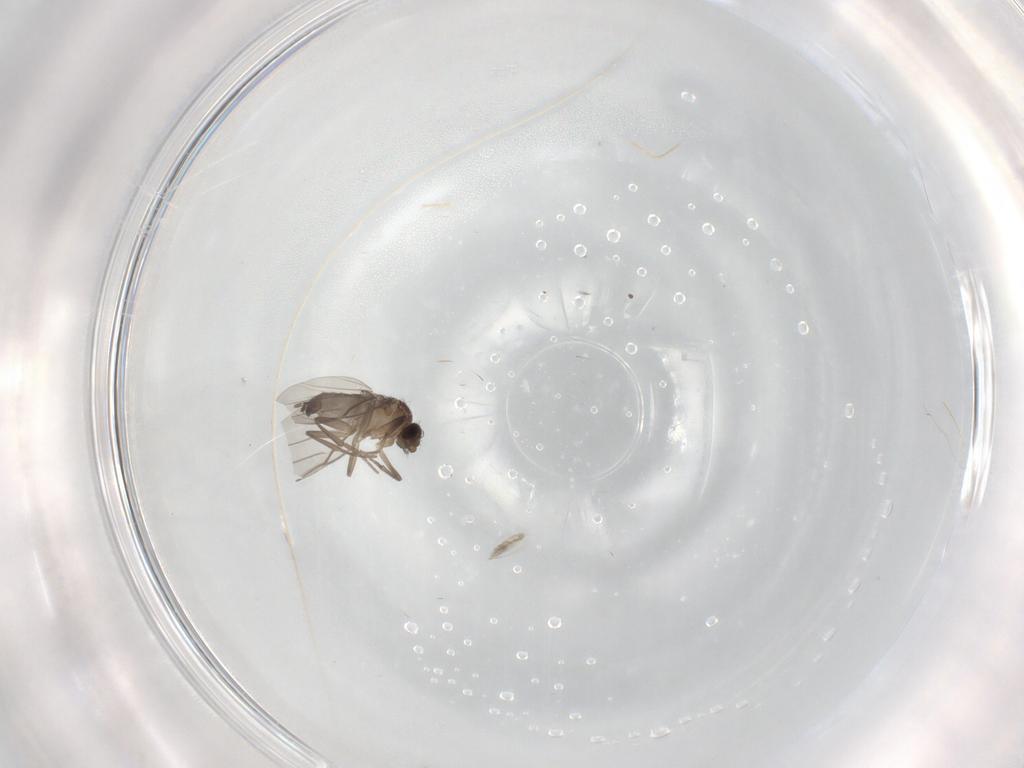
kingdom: Animalia
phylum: Arthropoda
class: Insecta
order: Diptera
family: Ceratopogonidae
